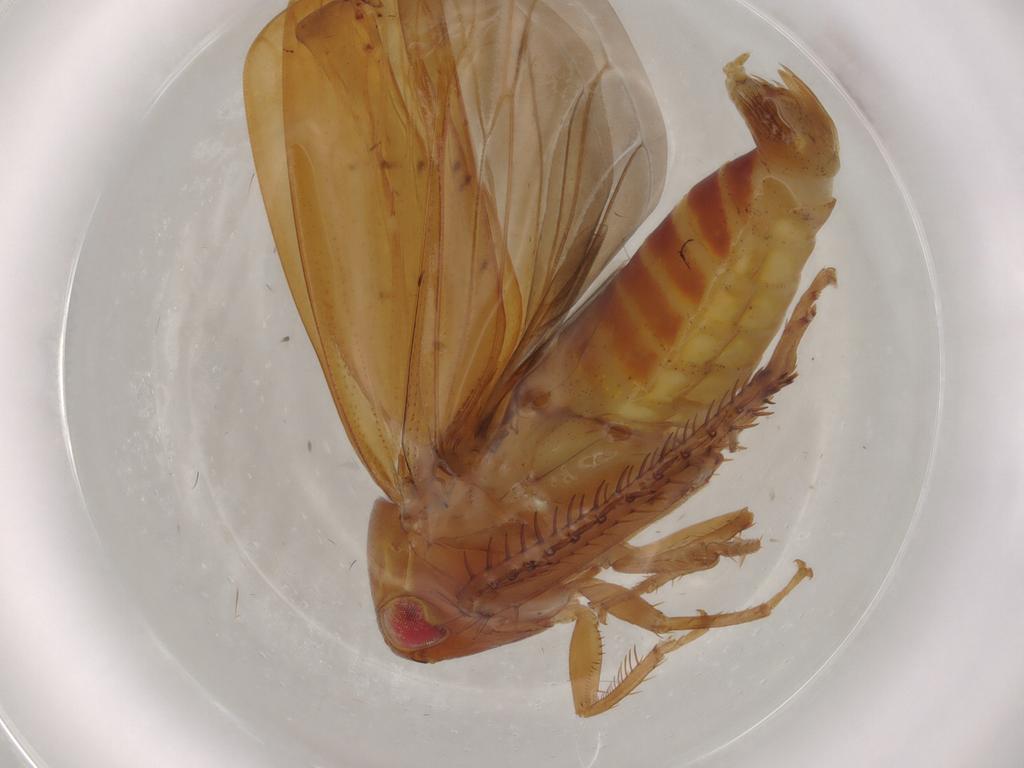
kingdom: Animalia
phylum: Arthropoda
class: Insecta
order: Hemiptera
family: Cicadellidae
